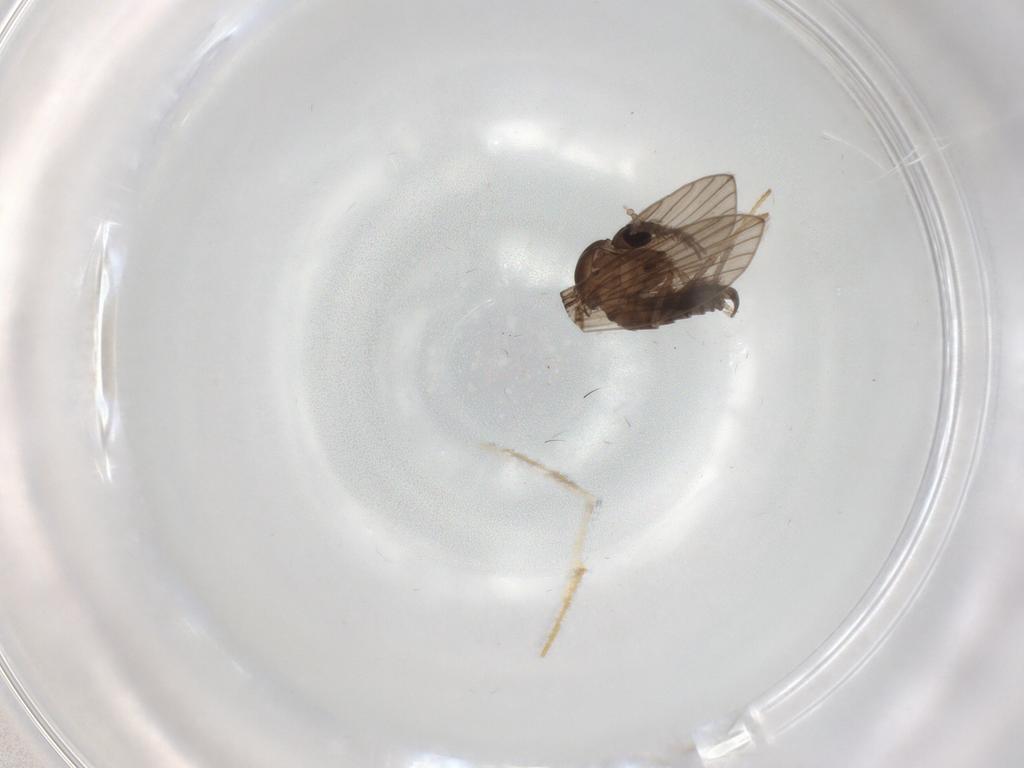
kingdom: Animalia
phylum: Arthropoda
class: Insecta
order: Diptera
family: Psychodidae
